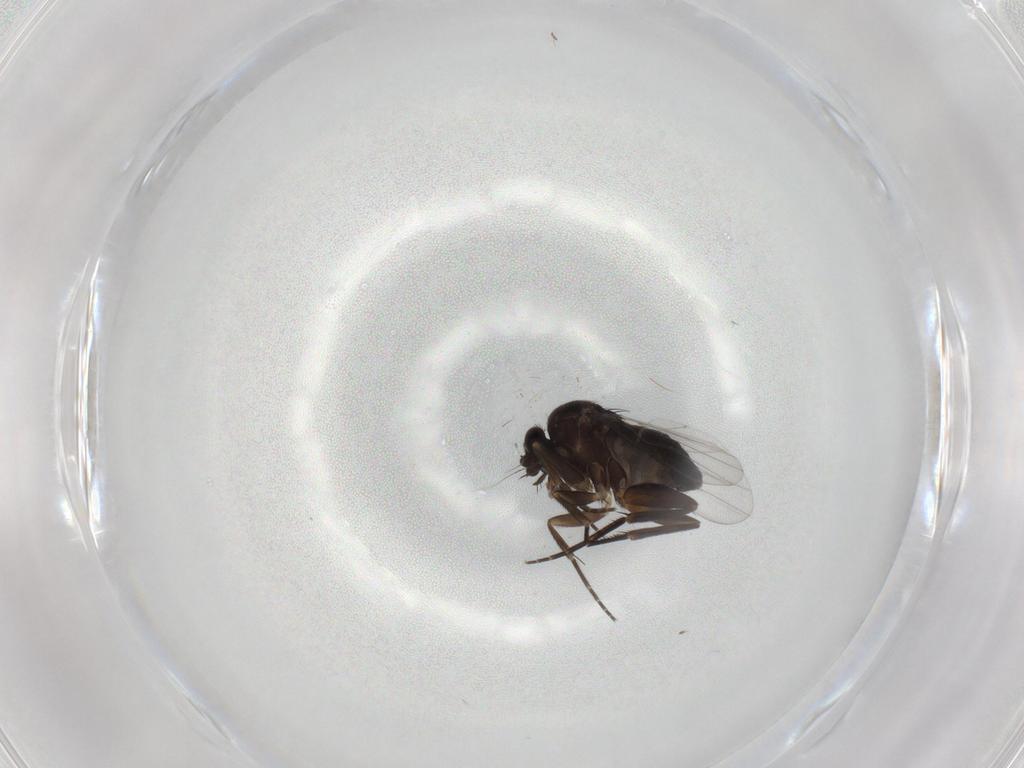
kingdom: Animalia
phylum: Arthropoda
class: Insecta
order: Diptera
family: Phoridae
